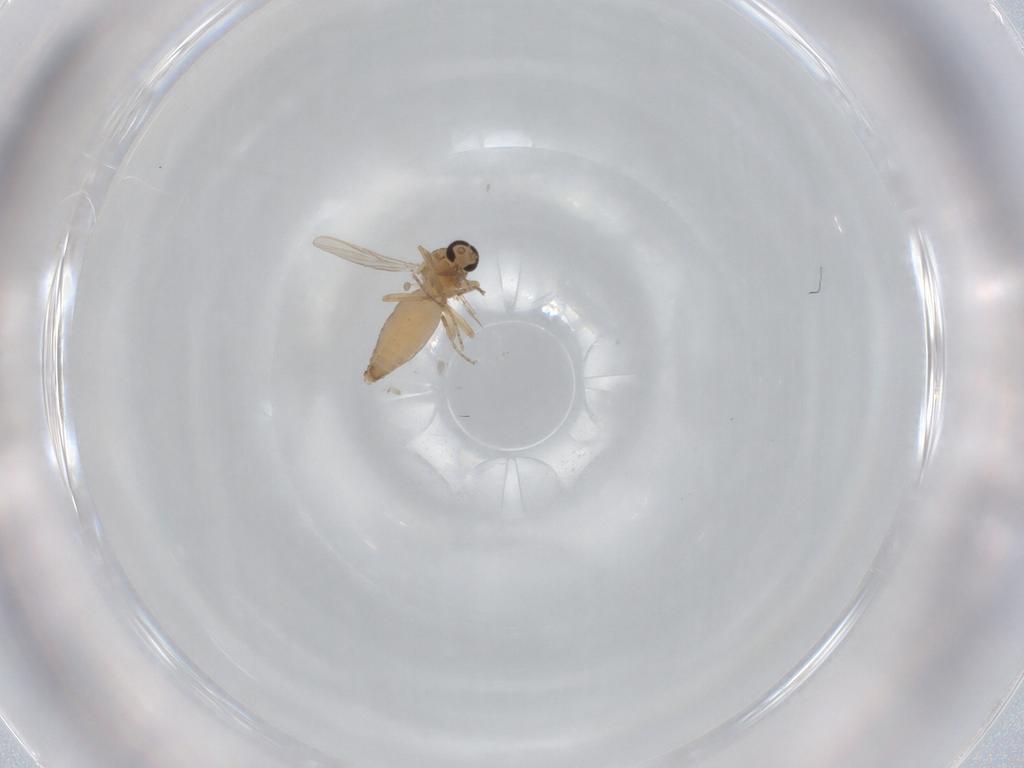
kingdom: Animalia
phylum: Arthropoda
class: Insecta
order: Diptera
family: Ceratopogonidae
